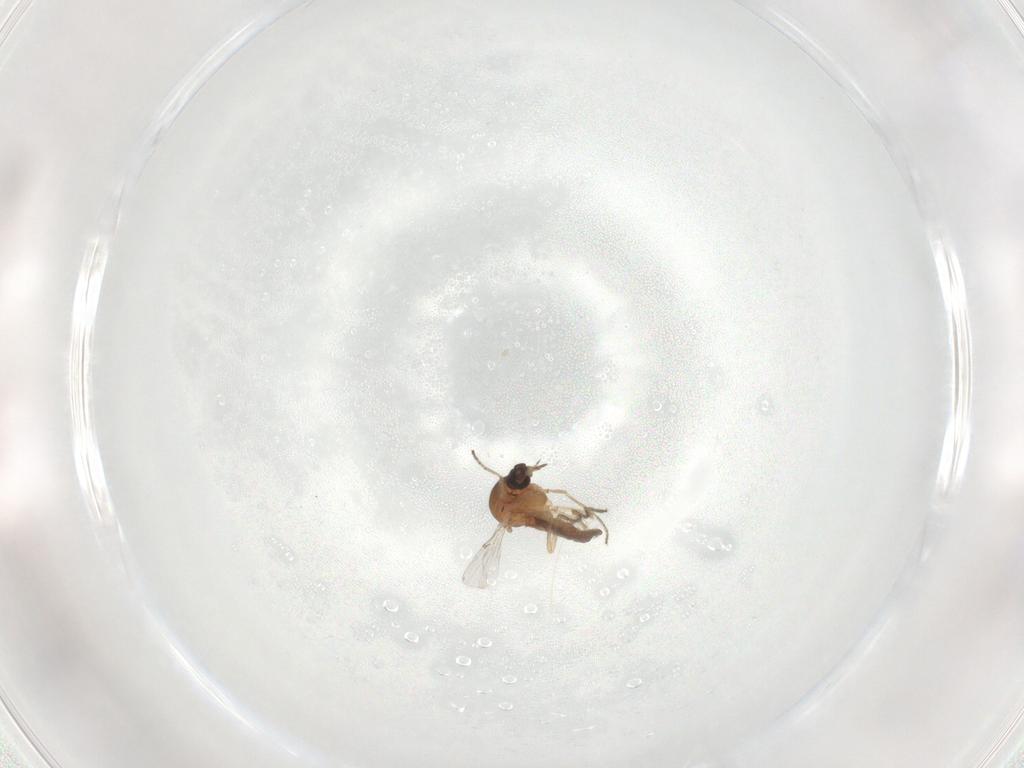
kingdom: Animalia
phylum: Arthropoda
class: Insecta
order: Diptera
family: Ceratopogonidae
